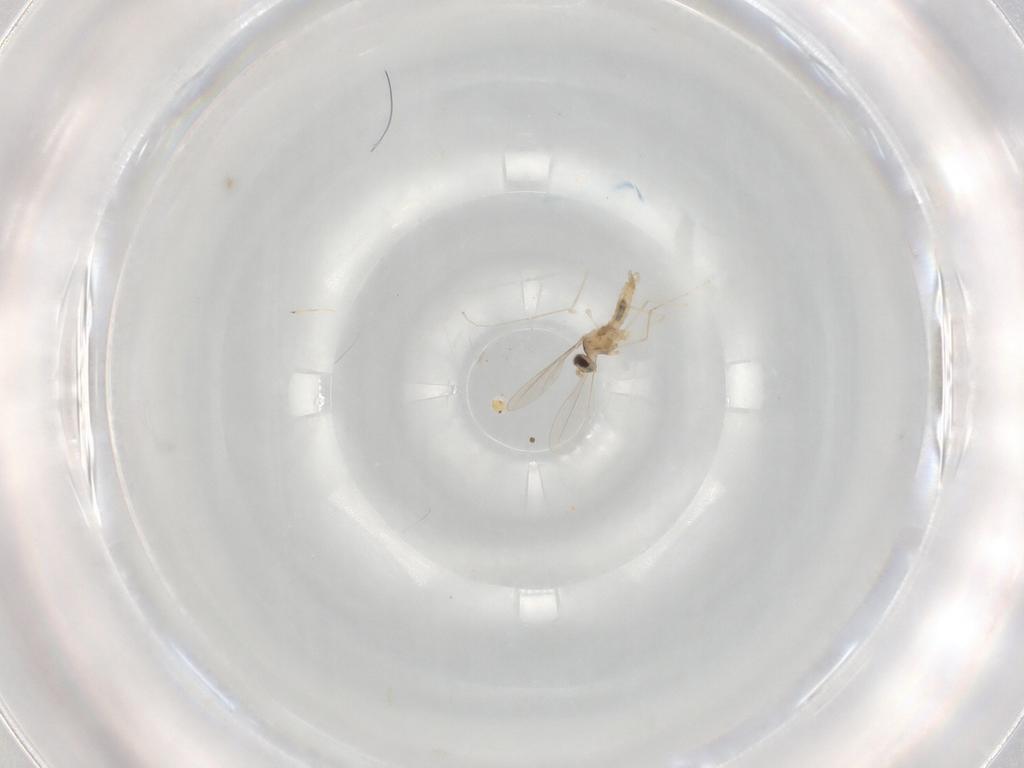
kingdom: Animalia
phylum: Arthropoda
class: Insecta
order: Diptera
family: Cecidomyiidae
